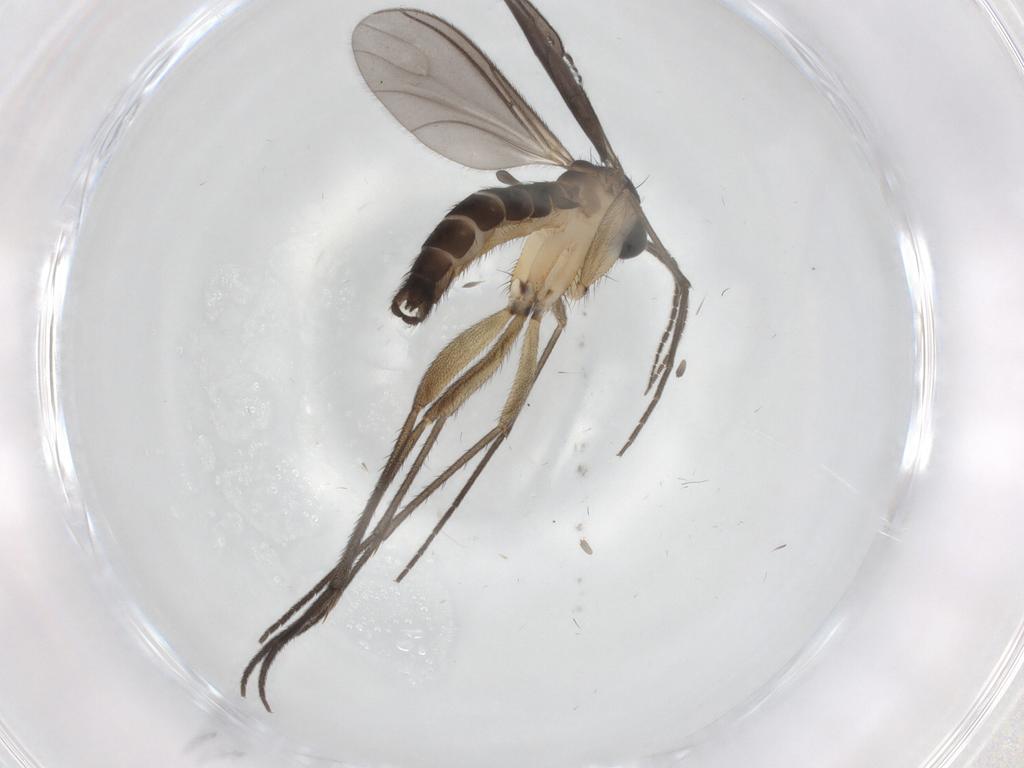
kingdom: Animalia
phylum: Arthropoda
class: Insecta
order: Diptera
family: Sciaridae
